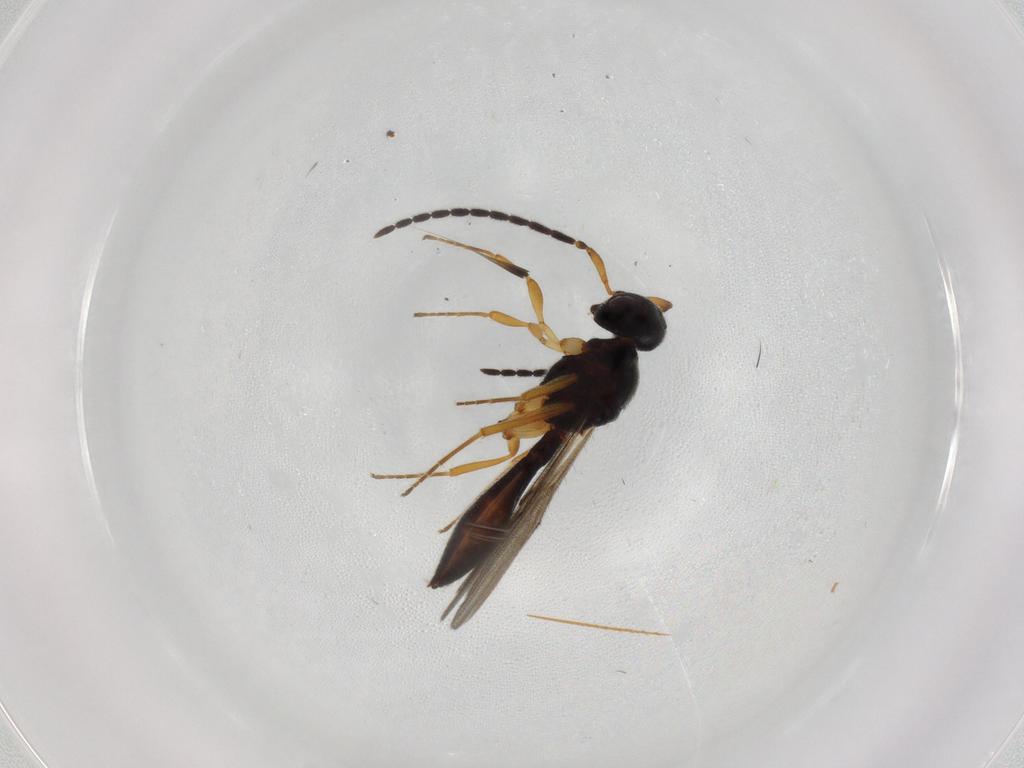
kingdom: Animalia
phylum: Arthropoda
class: Insecta
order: Hymenoptera
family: Scelionidae
